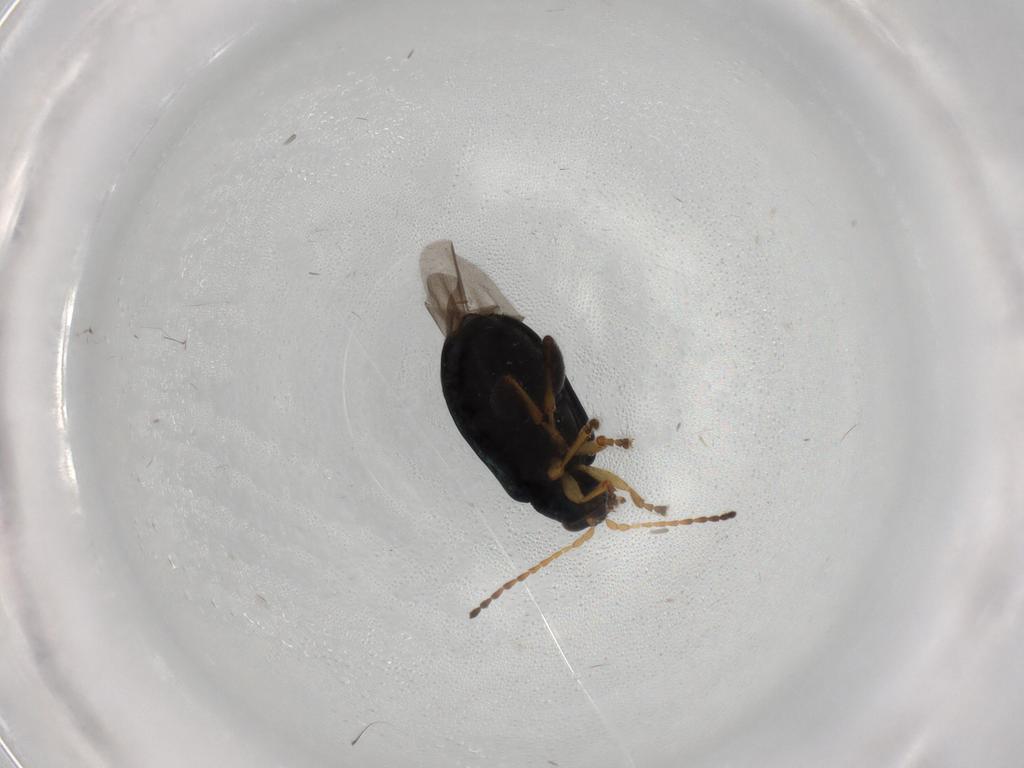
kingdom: Animalia
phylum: Arthropoda
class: Insecta
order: Coleoptera
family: Chrysomelidae
